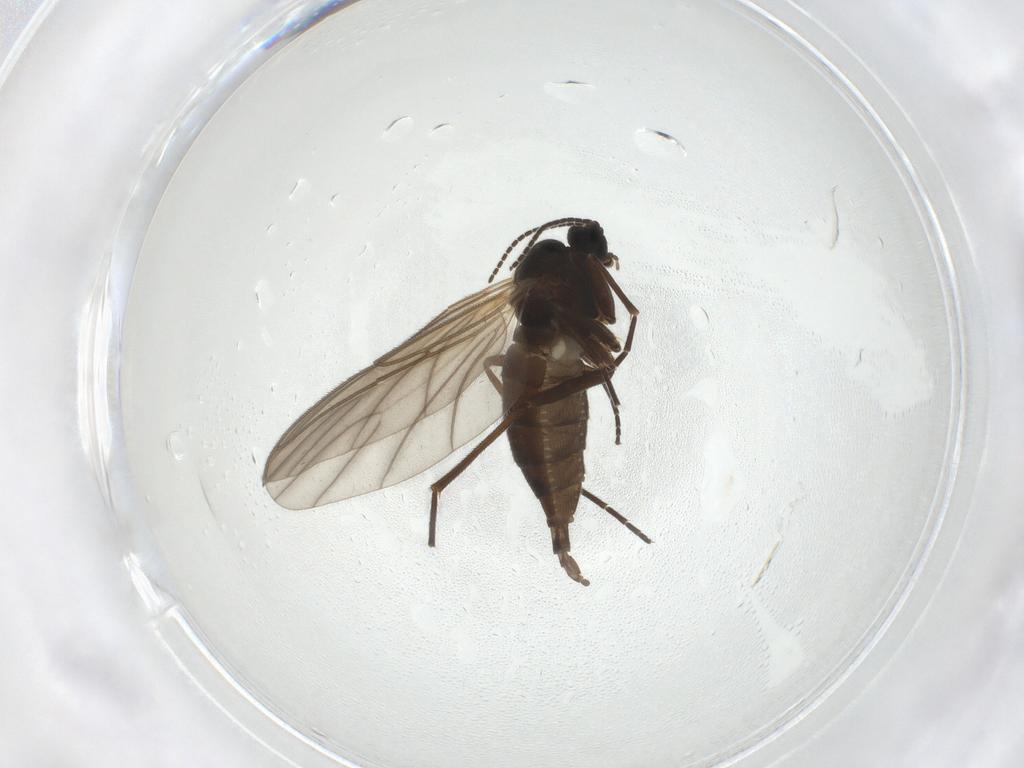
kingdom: Animalia
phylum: Arthropoda
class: Insecta
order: Diptera
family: Sciaridae
